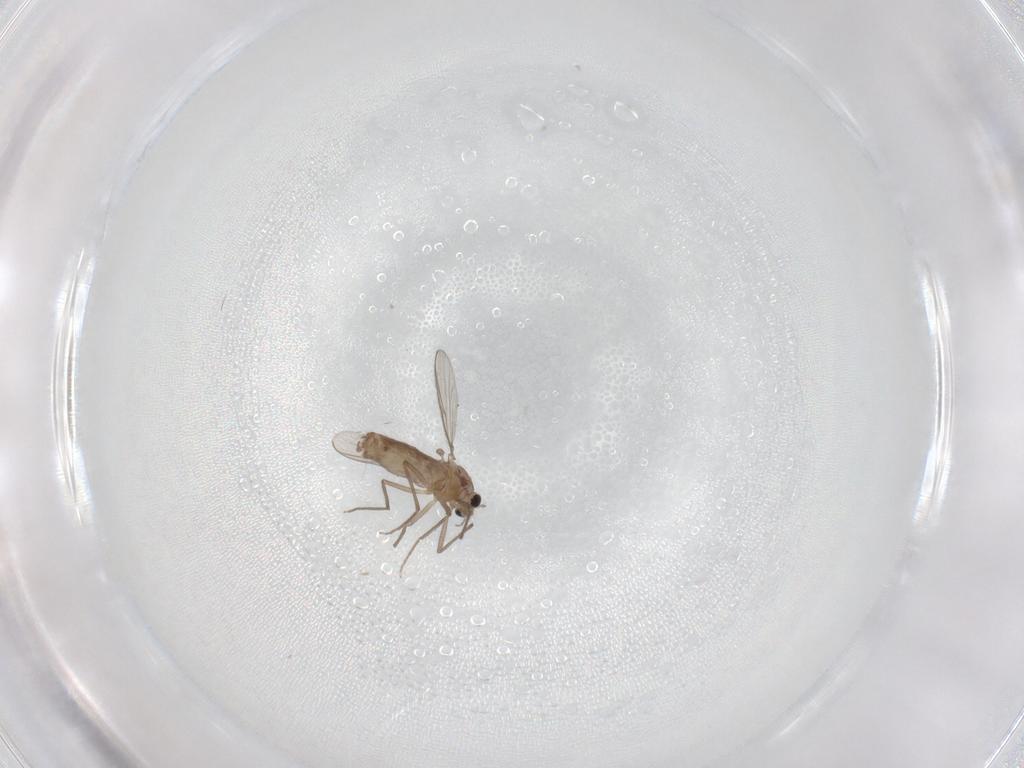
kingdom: Animalia
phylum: Arthropoda
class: Insecta
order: Diptera
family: Chironomidae
